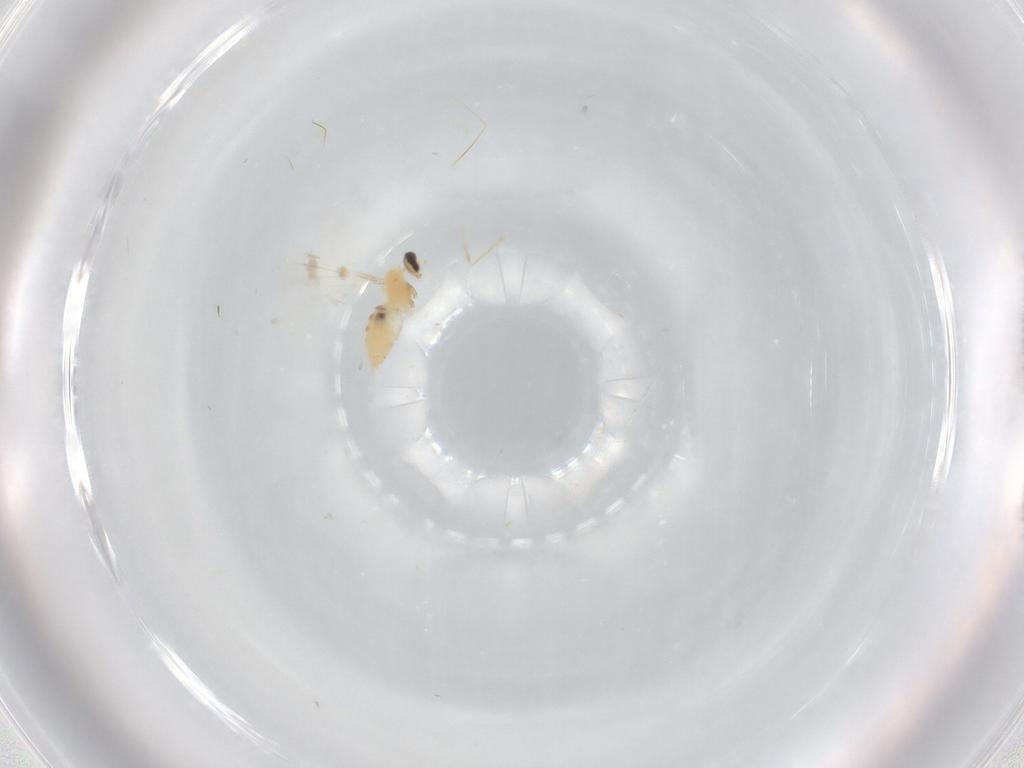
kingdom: Animalia
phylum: Arthropoda
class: Insecta
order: Diptera
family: Cecidomyiidae
